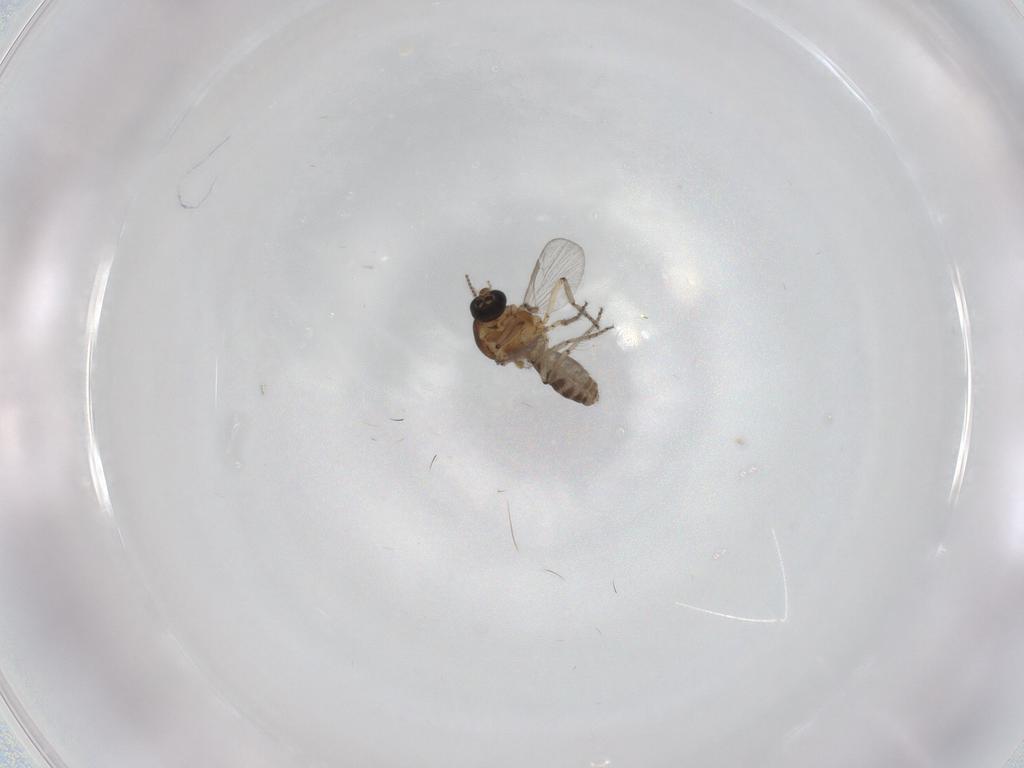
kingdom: Animalia
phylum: Arthropoda
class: Insecta
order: Diptera
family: Ceratopogonidae
